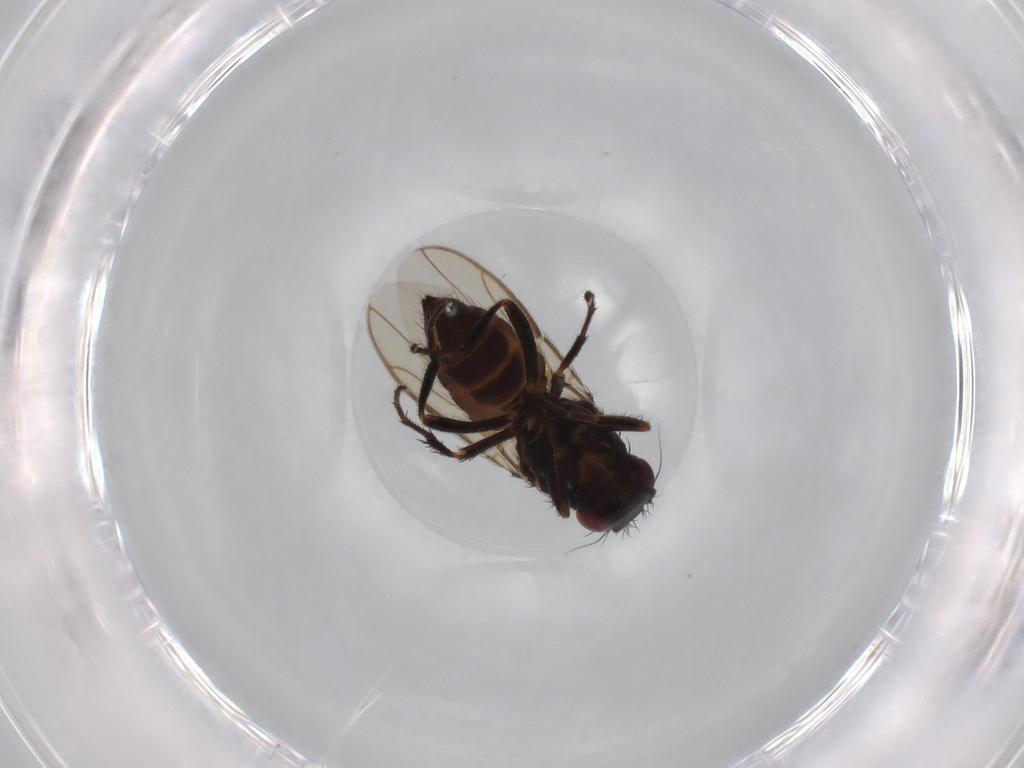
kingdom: Animalia
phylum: Arthropoda
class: Insecta
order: Diptera
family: Sphaeroceridae
